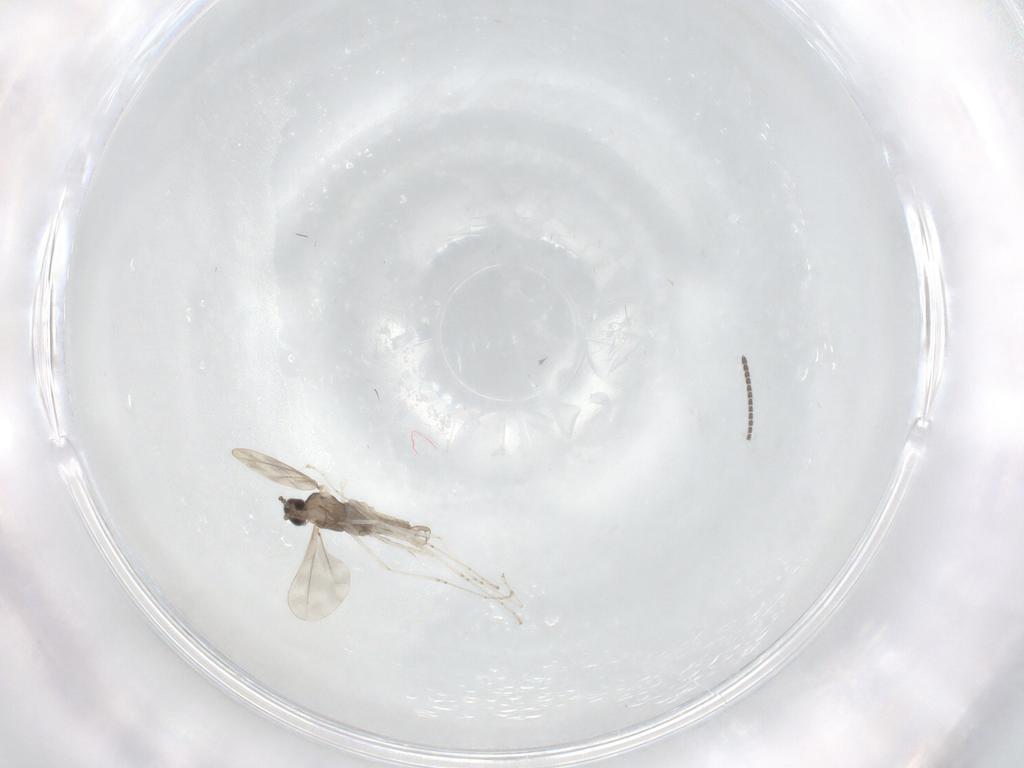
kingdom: Animalia
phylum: Arthropoda
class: Insecta
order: Diptera
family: Cecidomyiidae
